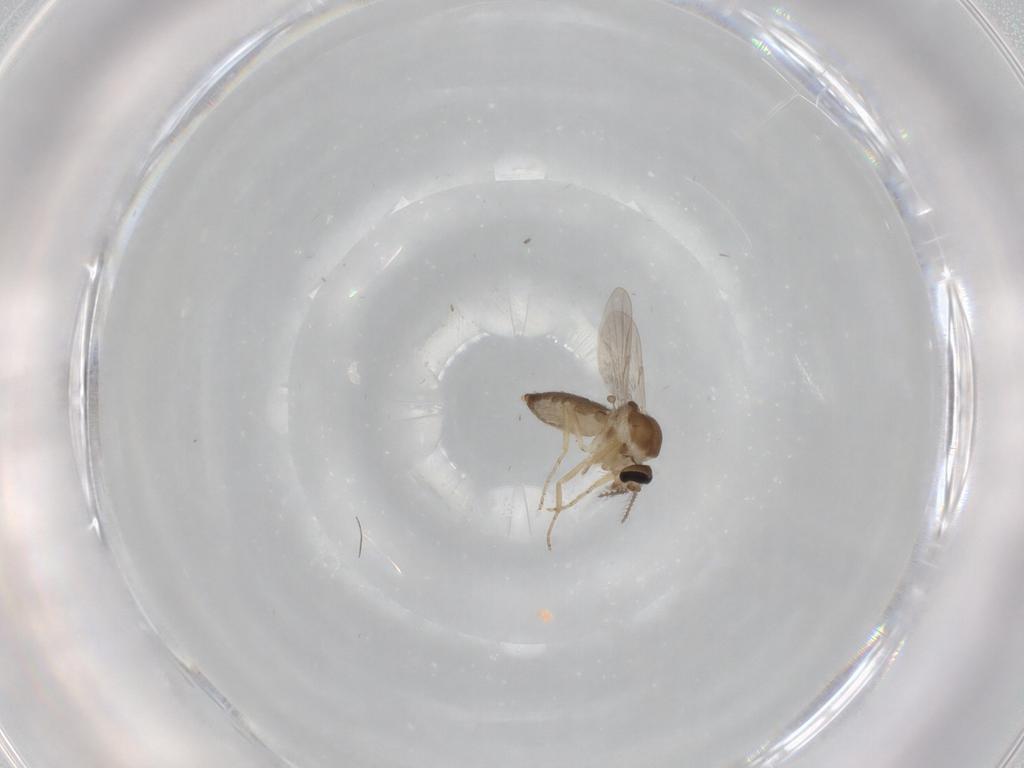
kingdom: Animalia
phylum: Arthropoda
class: Insecta
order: Diptera
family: Ceratopogonidae
